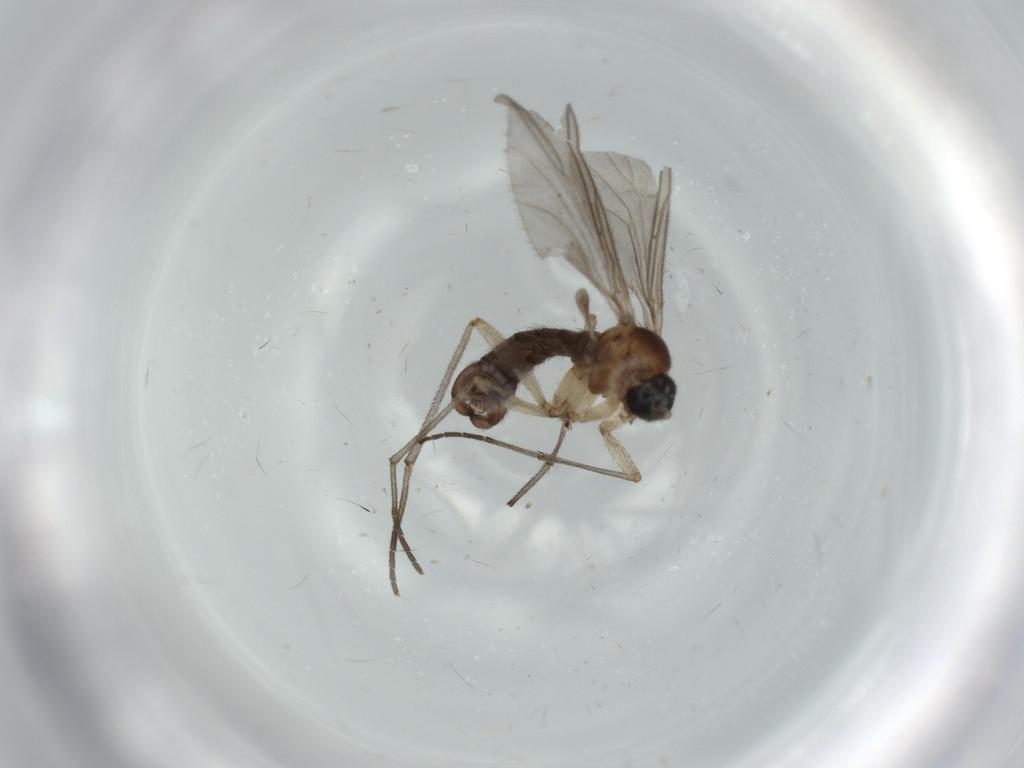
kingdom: Animalia
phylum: Arthropoda
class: Insecta
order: Diptera
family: Sciaridae
